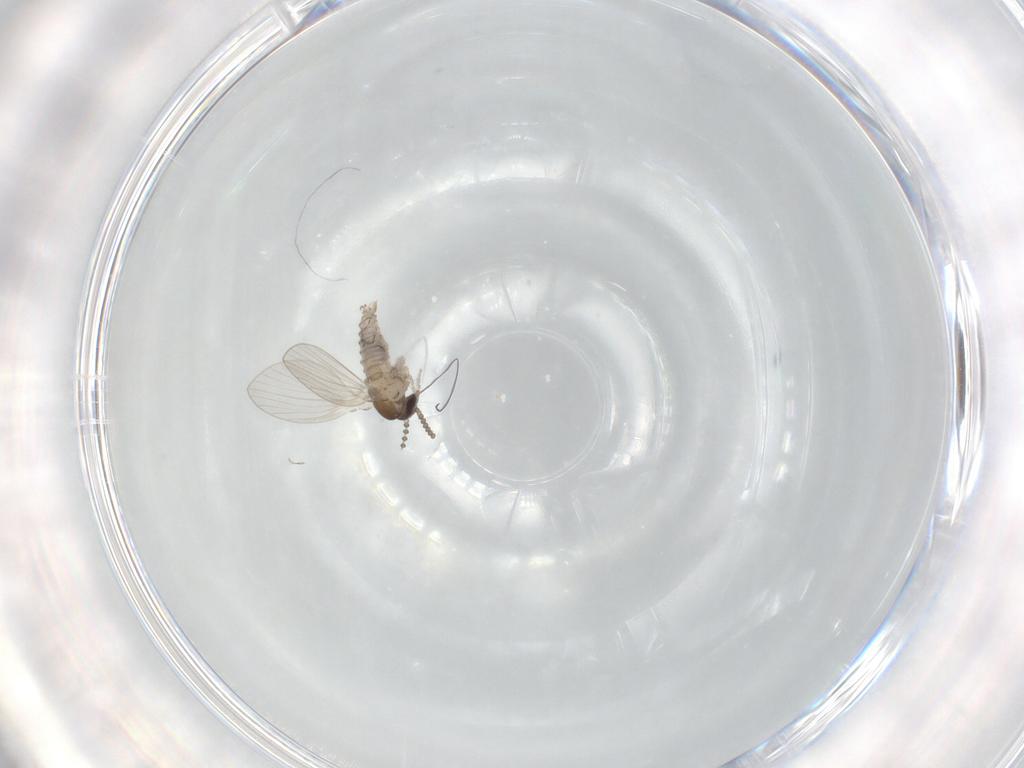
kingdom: Animalia
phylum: Arthropoda
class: Insecta
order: Diptera
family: Psychodidae
